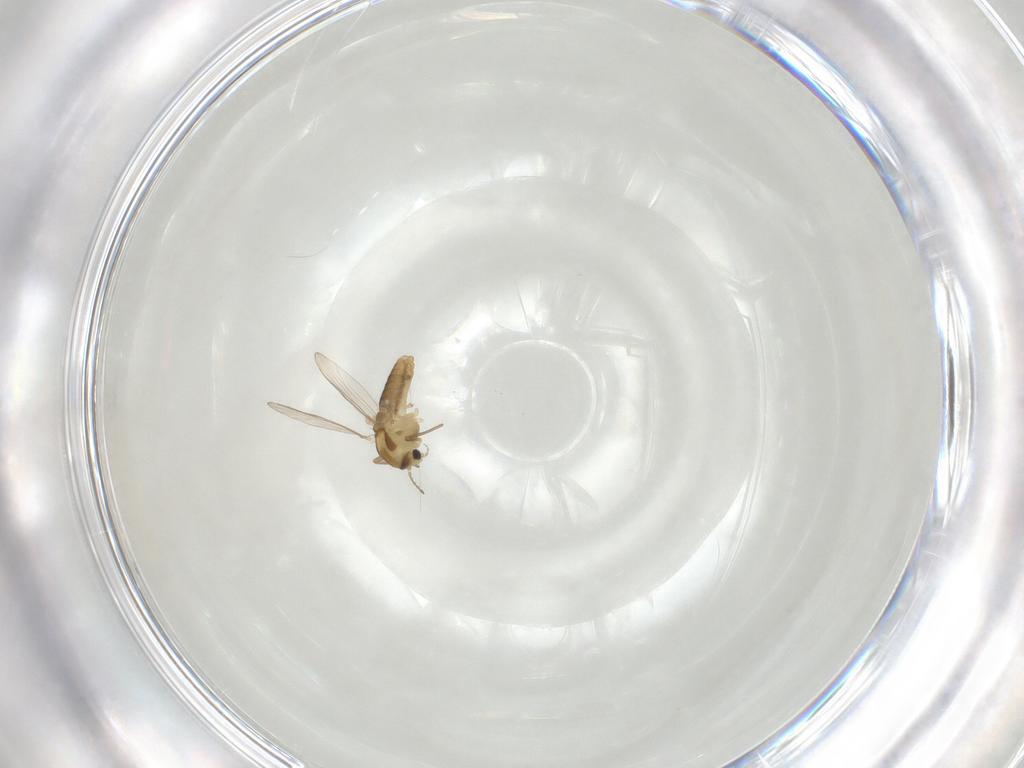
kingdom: Animalia
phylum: Arthropoda
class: Insecta
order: Diptera
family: Chironomidae
